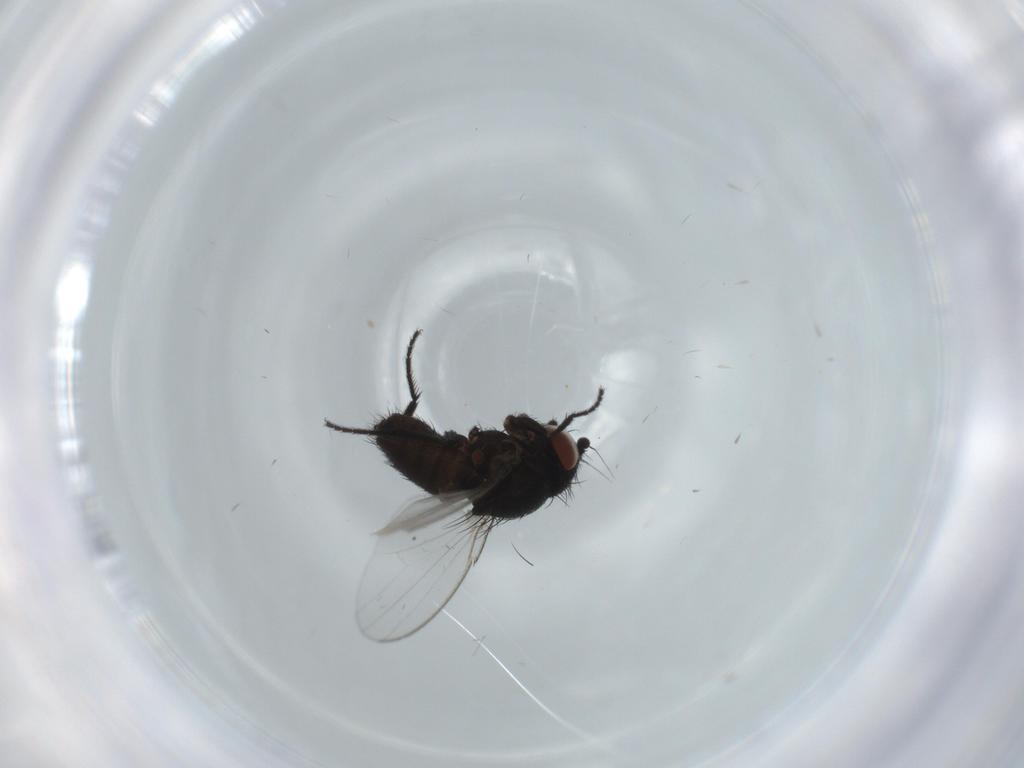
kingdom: Animalia
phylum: Arthropoda
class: Insecta
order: Diptera
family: Milichiidae
